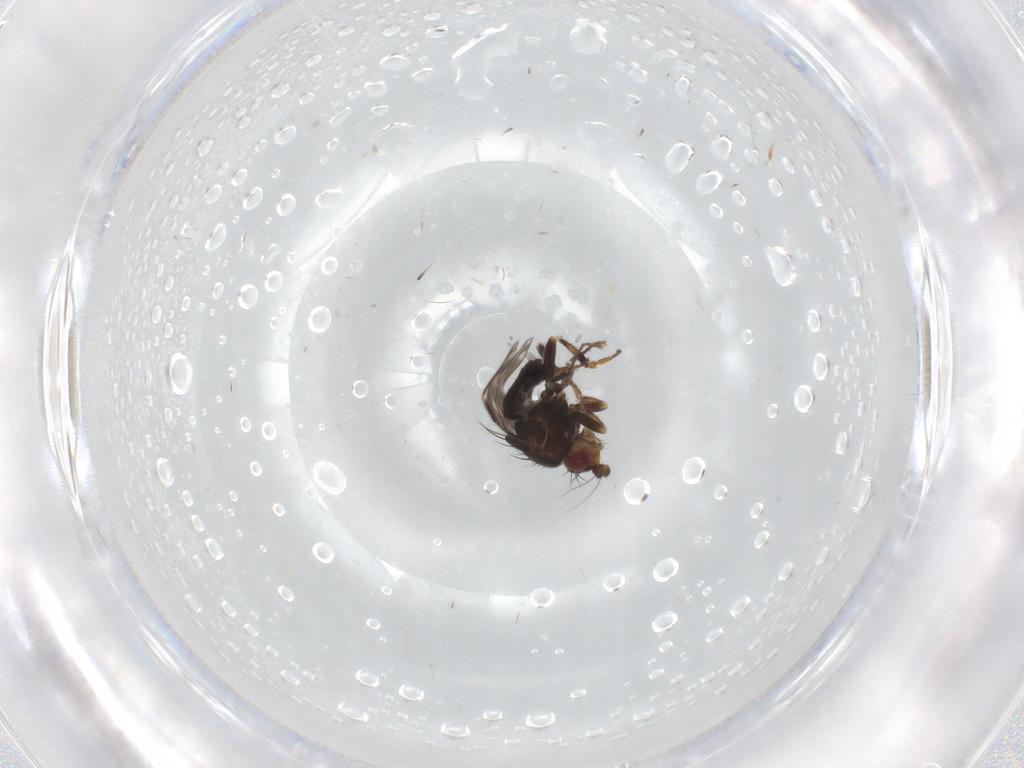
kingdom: Animalia
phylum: Arthropoda
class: Insecta
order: Diptera
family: Sphaeroceridae
